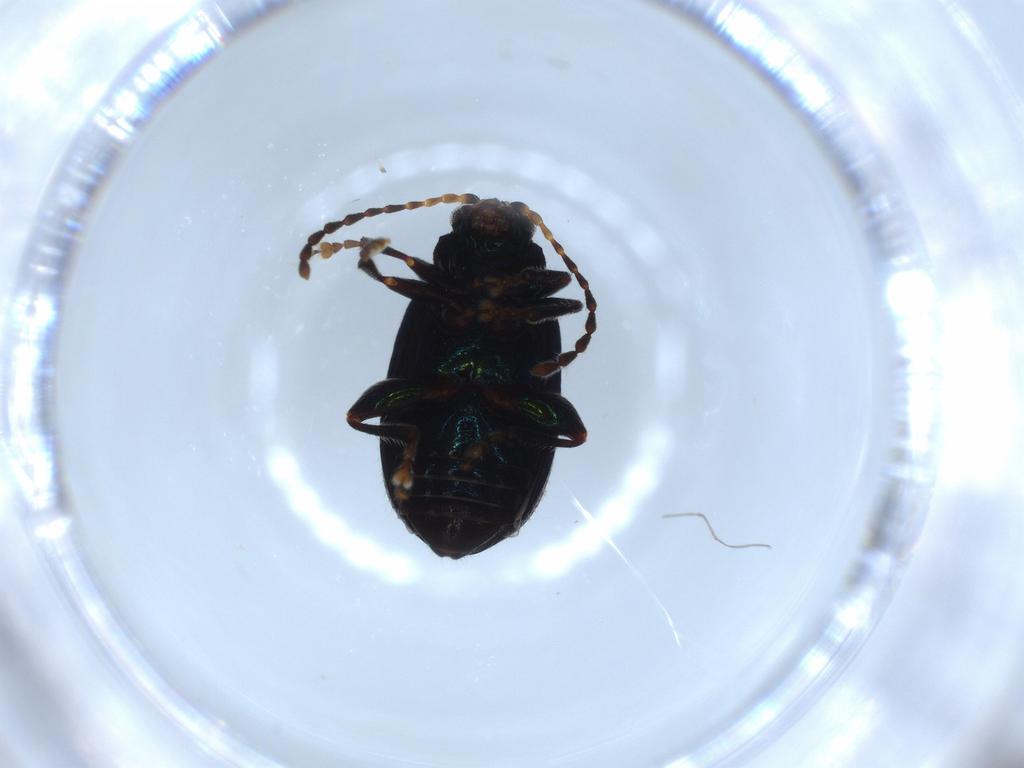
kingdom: Animalia
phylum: Arthropoda
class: Insecta
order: Coleoptera
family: Chrysomelidae
